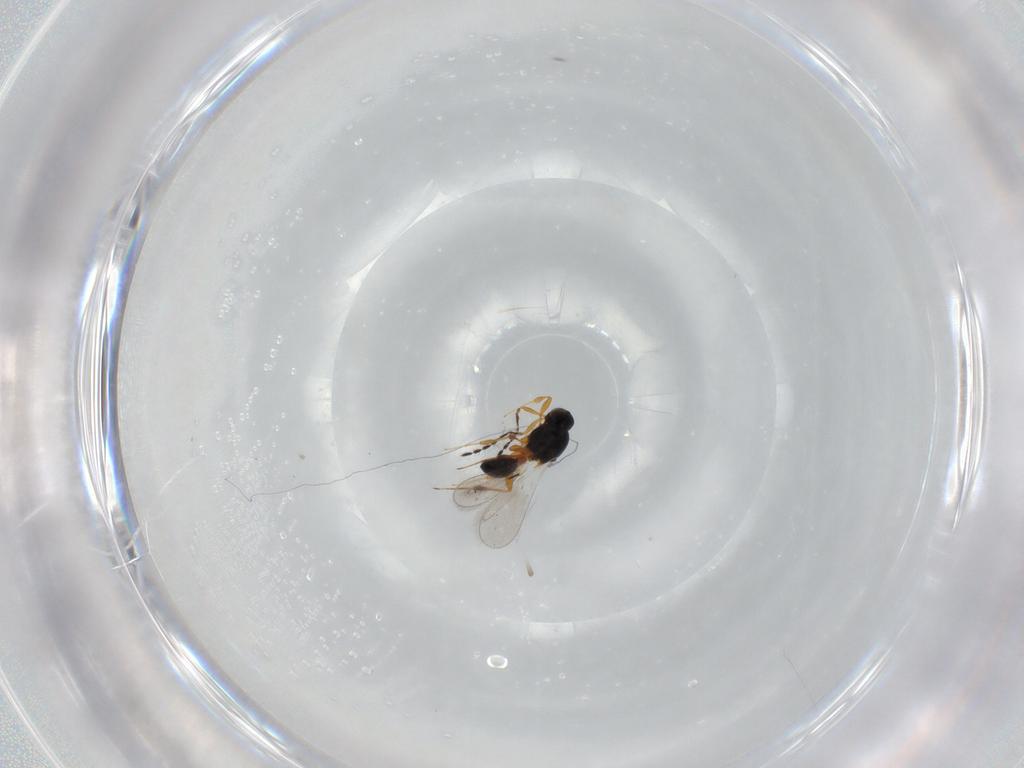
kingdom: Animalia
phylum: Arthropoda
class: Insecta
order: Hymenoptera
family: Platygastridae
